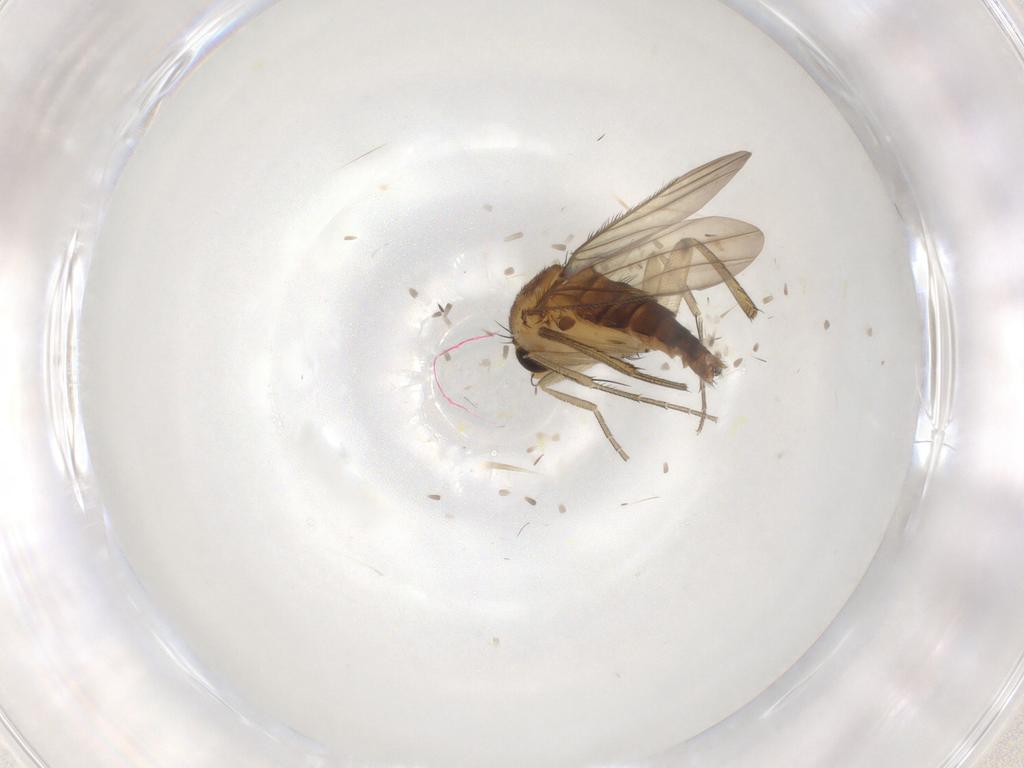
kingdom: Animalia
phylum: Arthropoda
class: Insecta
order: Diptera
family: Phoridae
